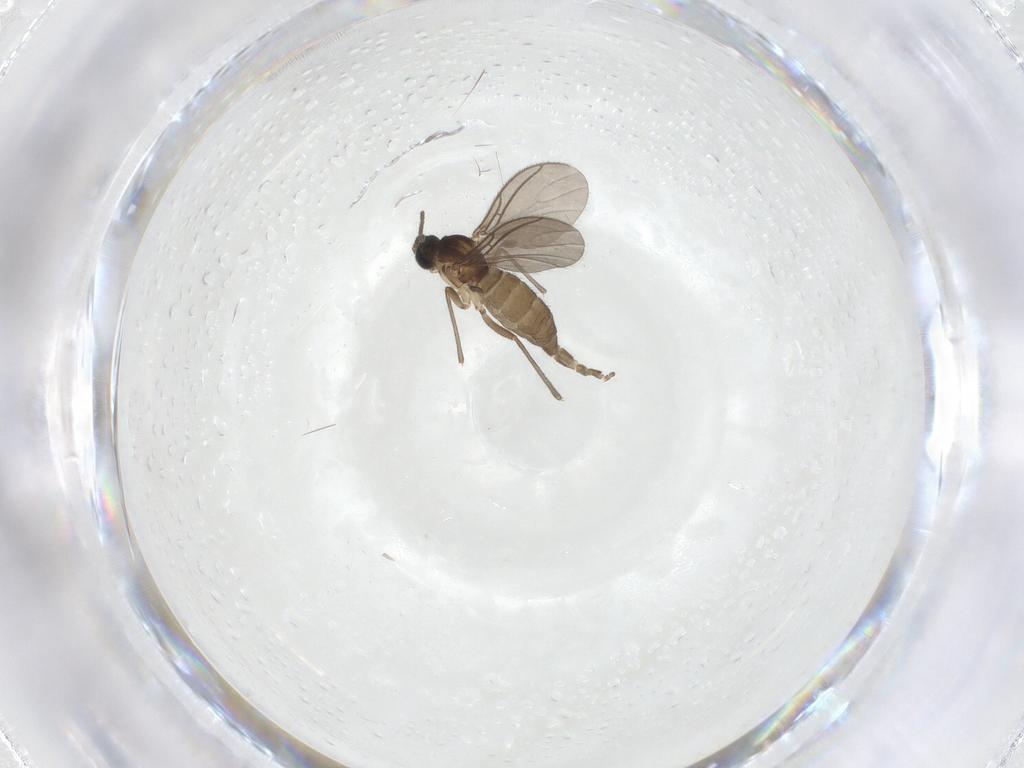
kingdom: Animalia
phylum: Arthropoda
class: Insecta
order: Diptera
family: Sciaridae
